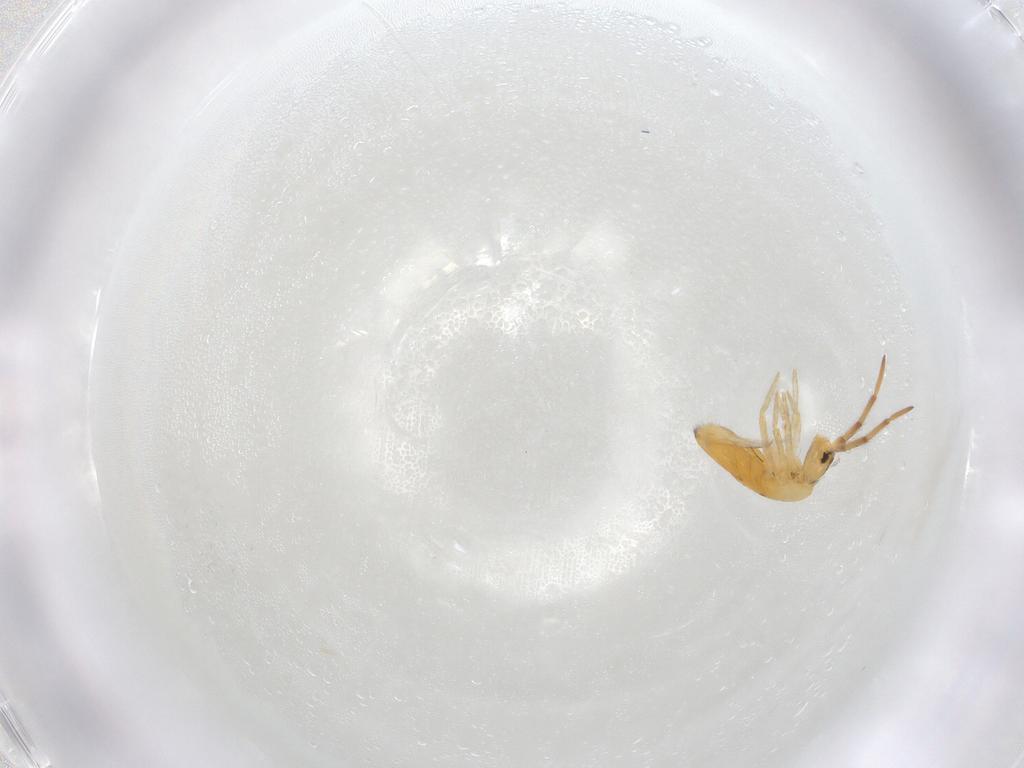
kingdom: Animalia
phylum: Arthropoda
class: Collembola
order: Entomobryomorpha
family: Entomobryidae
